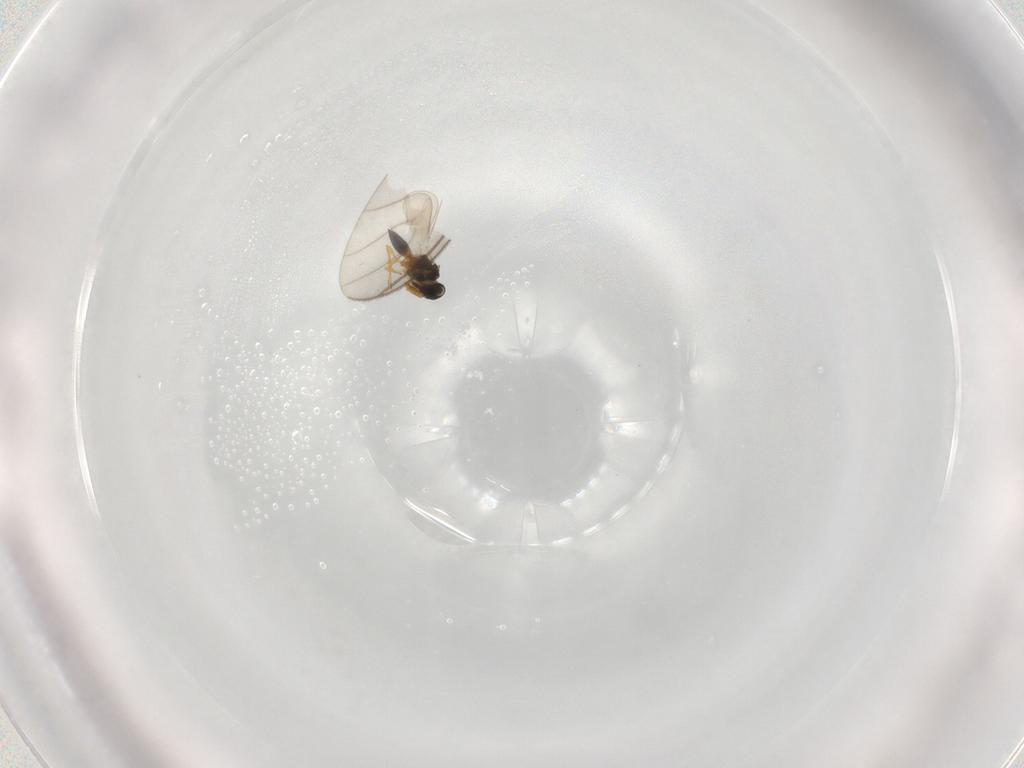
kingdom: Animalia
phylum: Arthropoda
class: Insecta
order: Hymenoptera
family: Platygastridae
